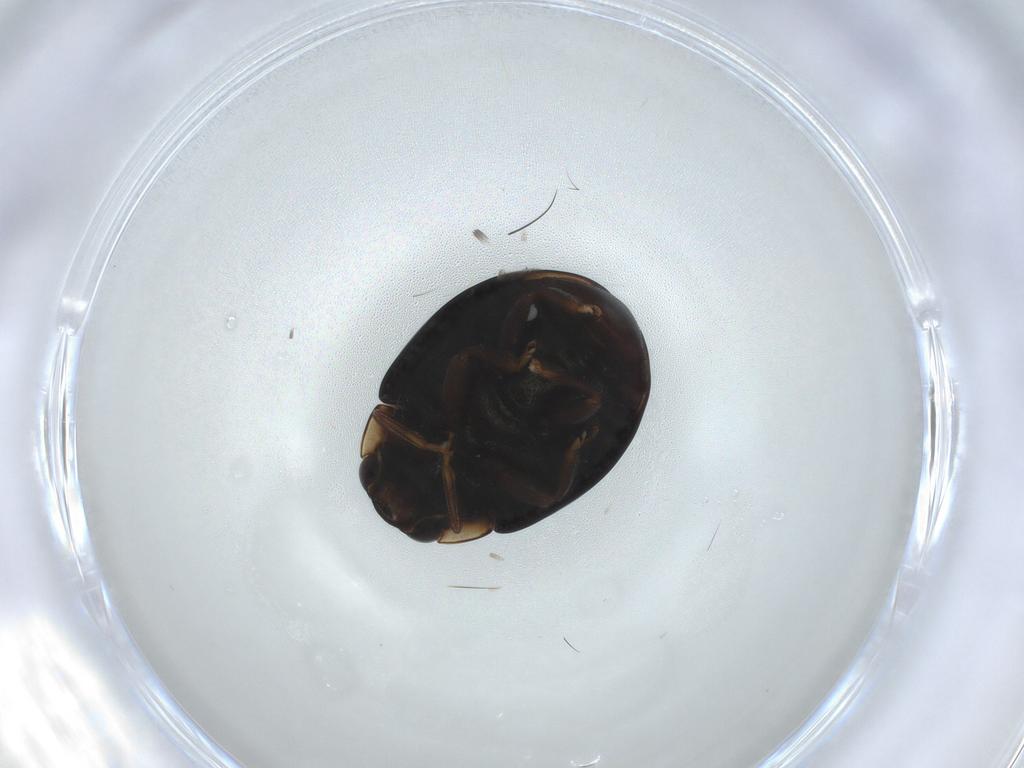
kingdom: Animalia
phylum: Arthropoda
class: Insecta
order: Coleoptera
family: Coccinellidae
